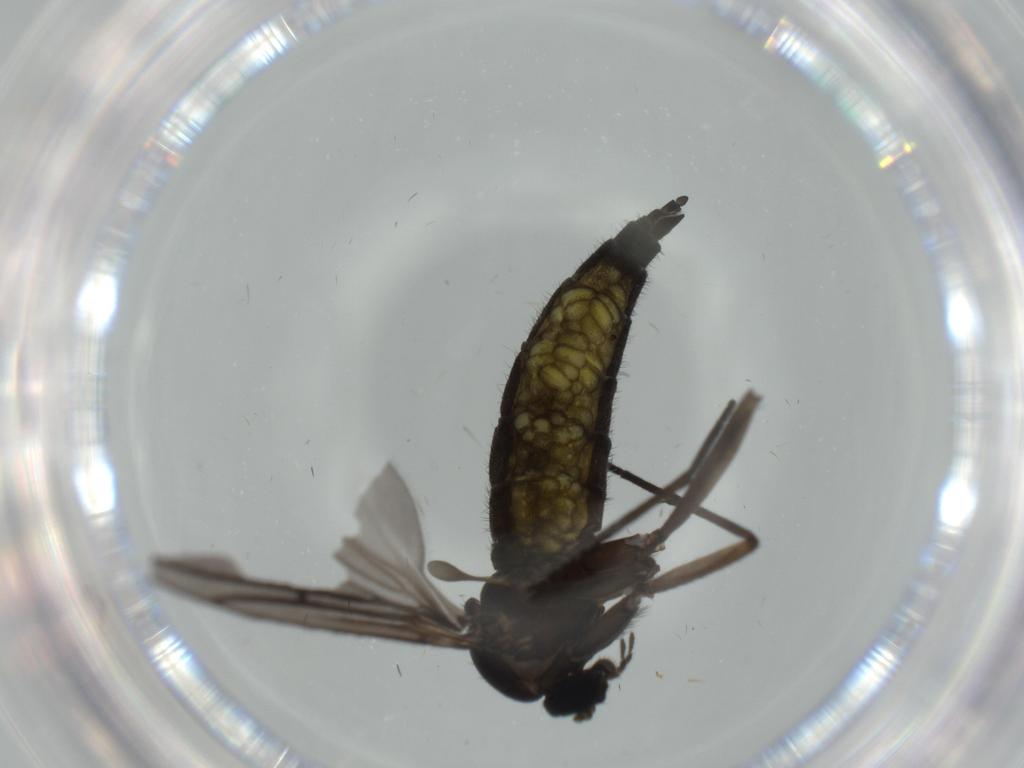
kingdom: Animalia
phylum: Arthropoda
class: Insecta
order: Diptera
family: Sciaridae
